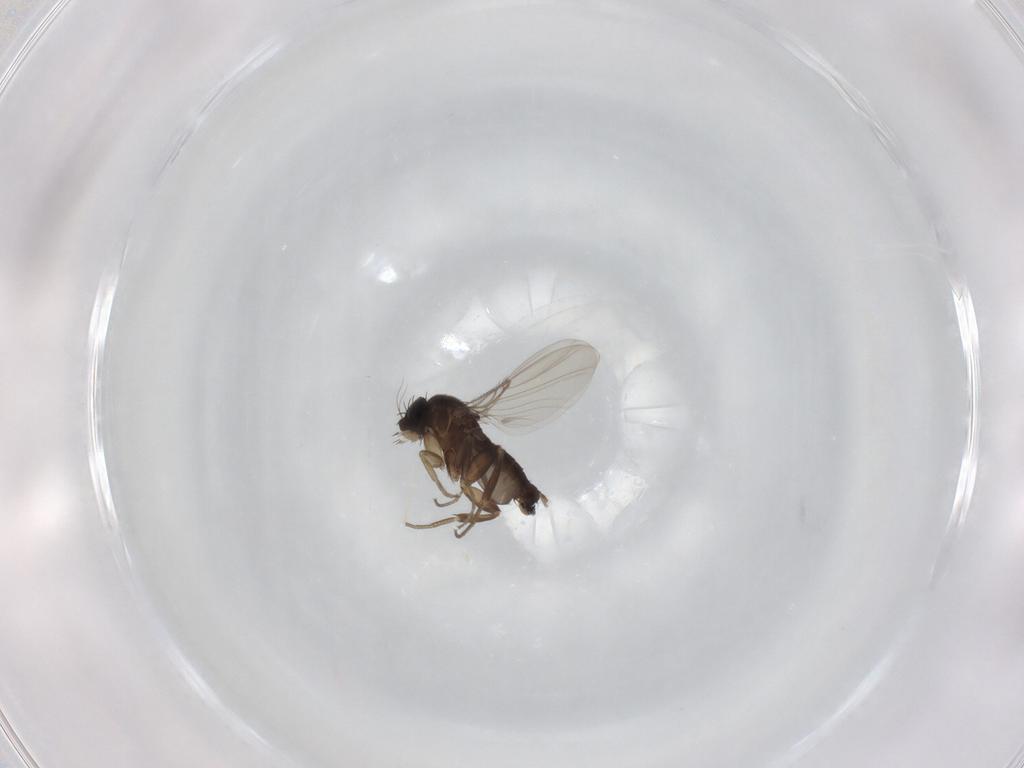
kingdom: Animalia
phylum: Arthropoda
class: Insecta
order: Diptera
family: Phoridae
